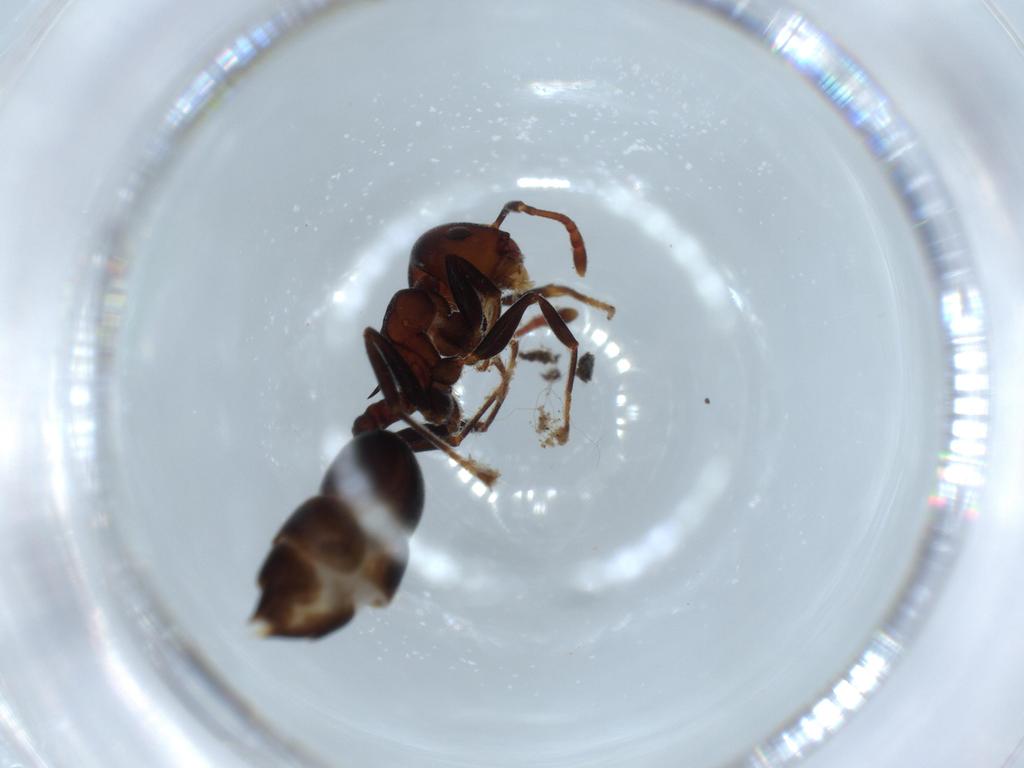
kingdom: Animalia
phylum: Arthropoda
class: Insecta
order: Hymenoptera
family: Formicidae
